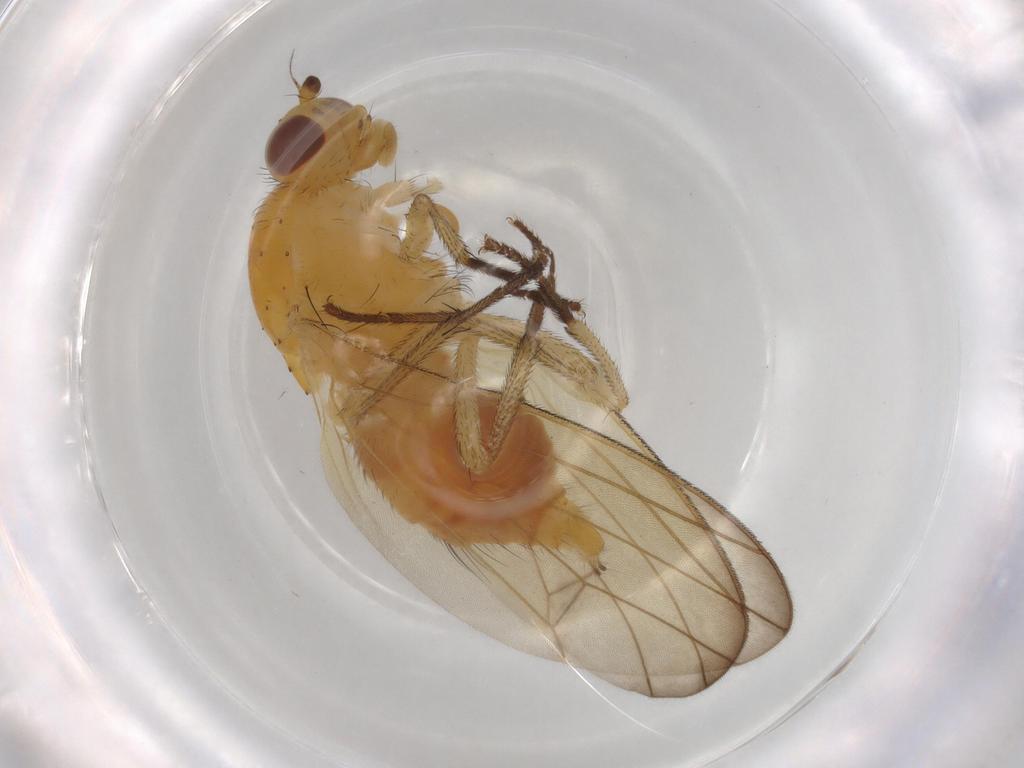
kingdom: Animalia
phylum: Arthropoda
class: Insecta
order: Diptera
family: Lauxaniidae
